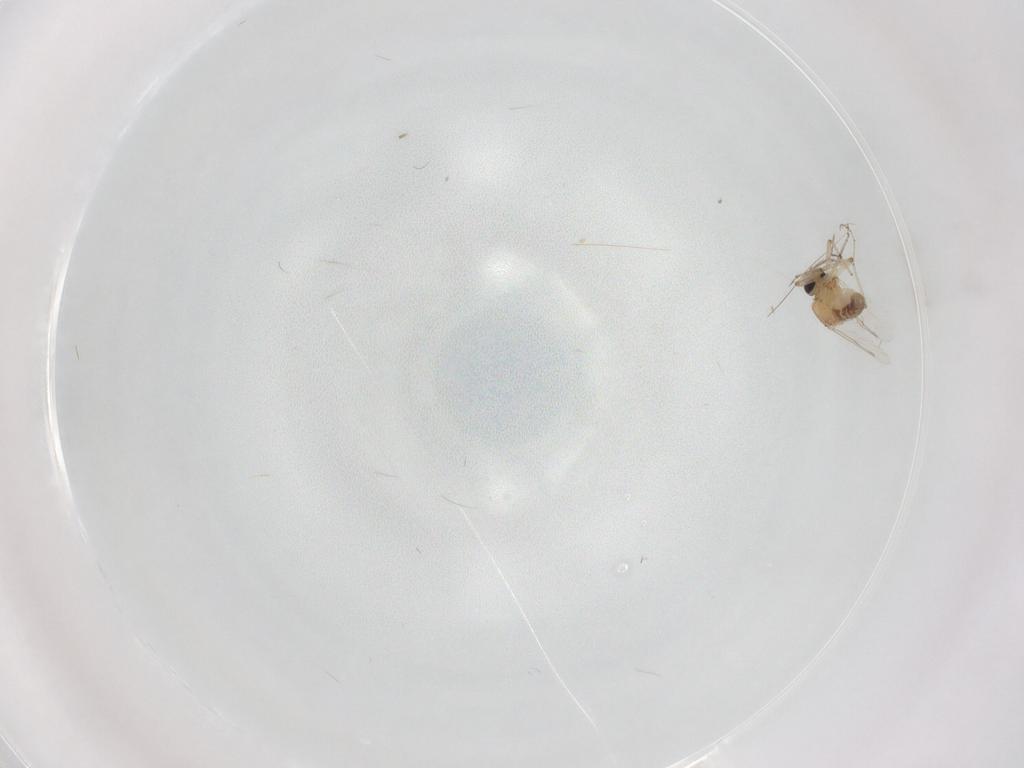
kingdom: Animalia
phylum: Arthropoda
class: Insecta
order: Diptera
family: Ceratopogonidae
